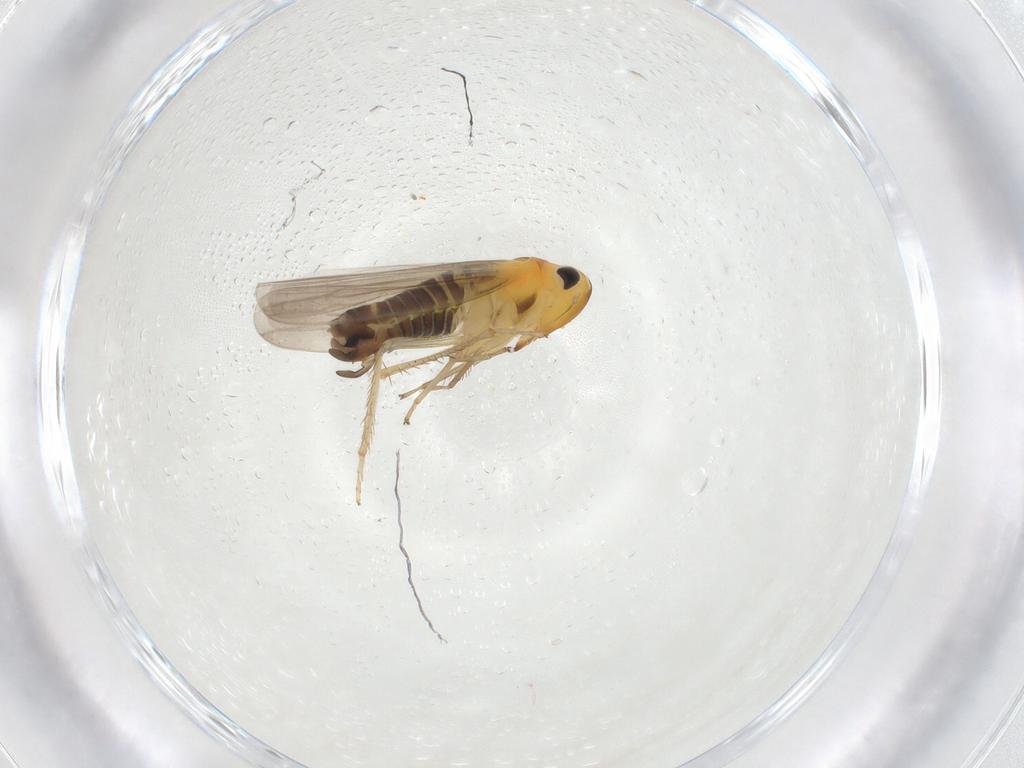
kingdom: Animalia
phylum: Arthropoda
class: Insecta
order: Hemiptera
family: Cicadellidae
